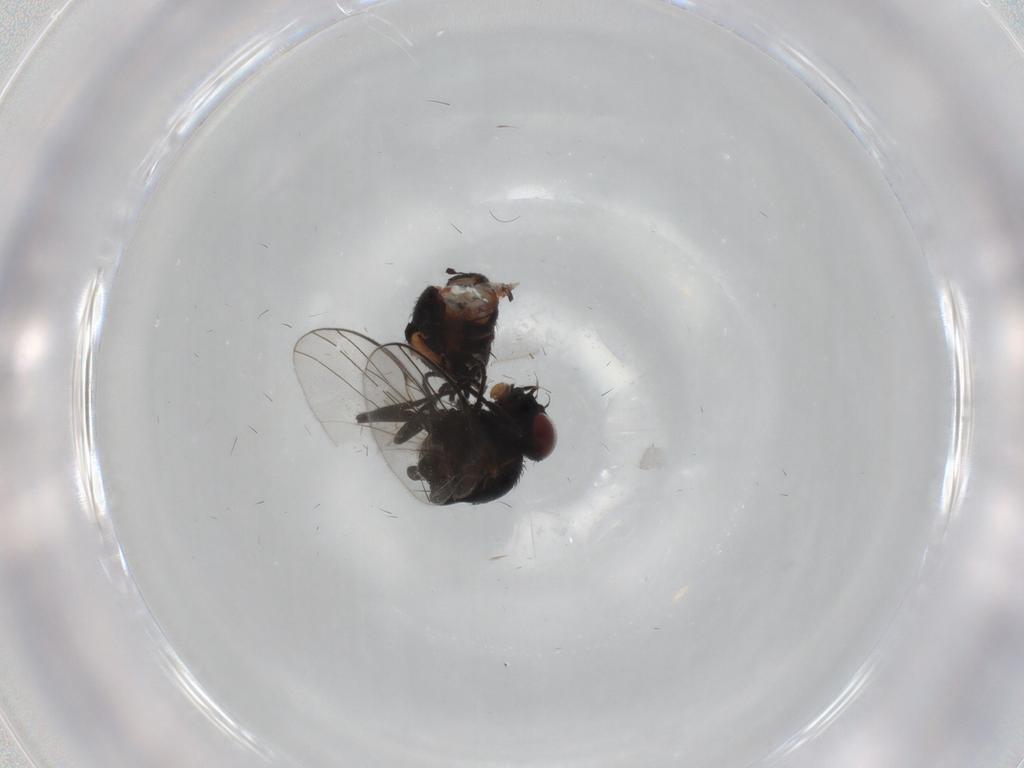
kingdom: Animalia
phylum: Arthropoda
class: Insecta
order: Diptera
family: Agromyzidae
